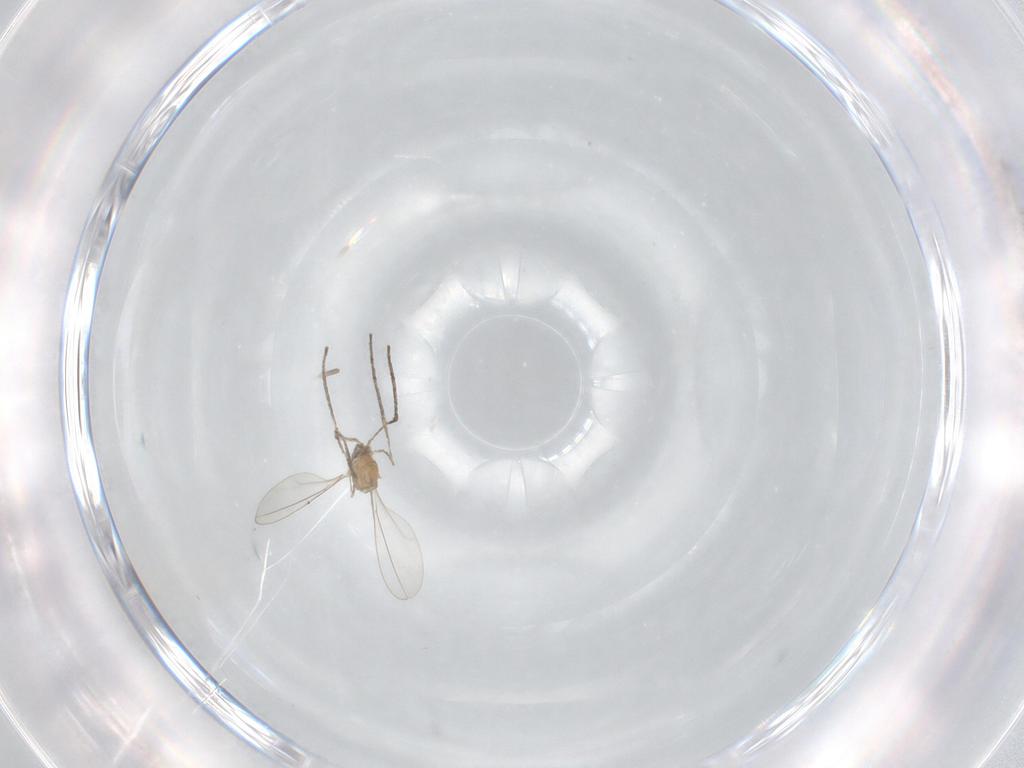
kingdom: Animalia
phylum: Arthropoda
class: Insecta
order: Diptera
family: Cecidomyiidae
